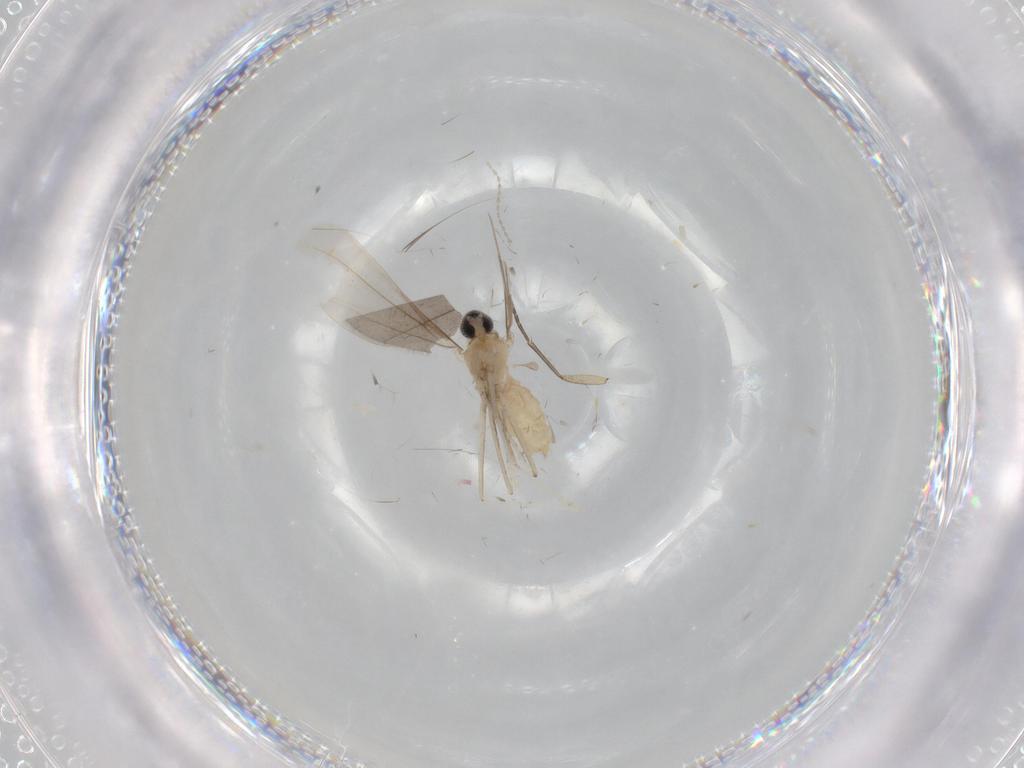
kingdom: Animalia
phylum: Arthropoda
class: Insecta
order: Diptera
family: Cecidomyiidae
